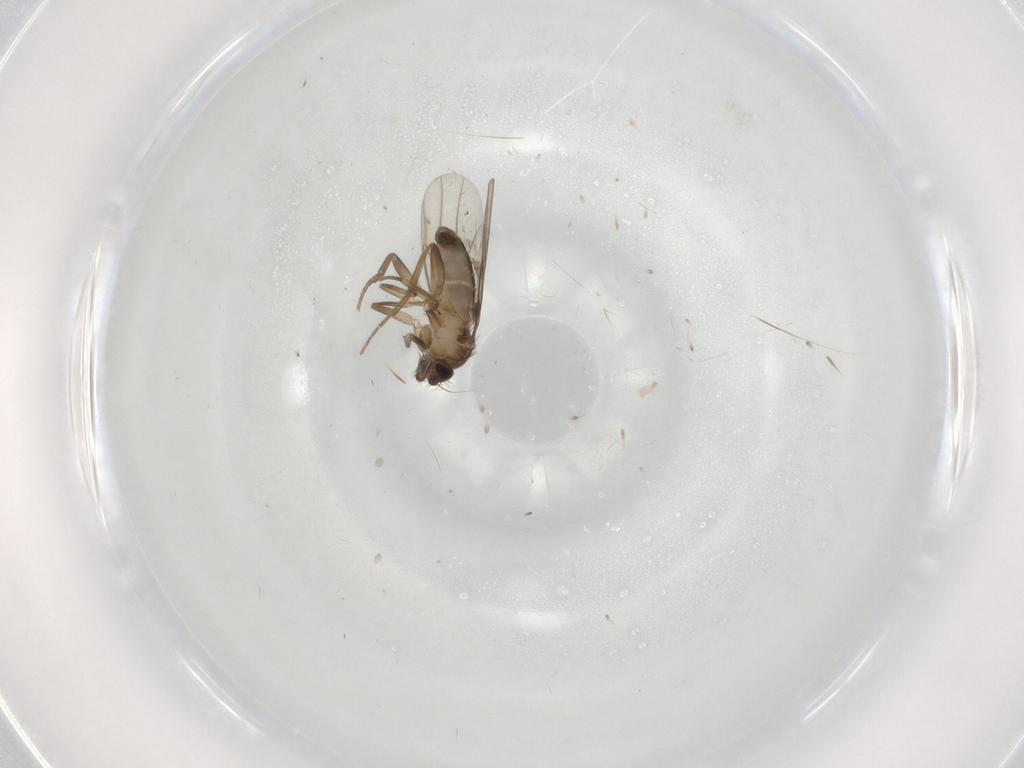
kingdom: Animalia
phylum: Arthropoda
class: Insecta
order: Diptera
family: Phoridae
